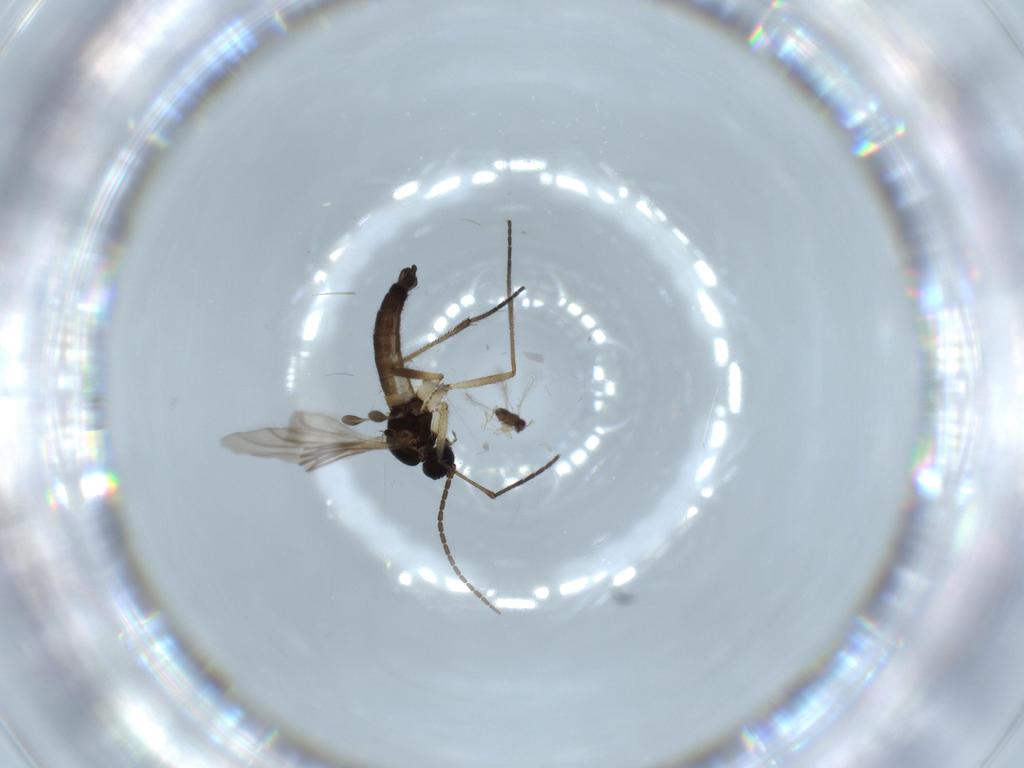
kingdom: Animalia
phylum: Arthropoda
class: Insecta
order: Diptera
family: Sciaridae
